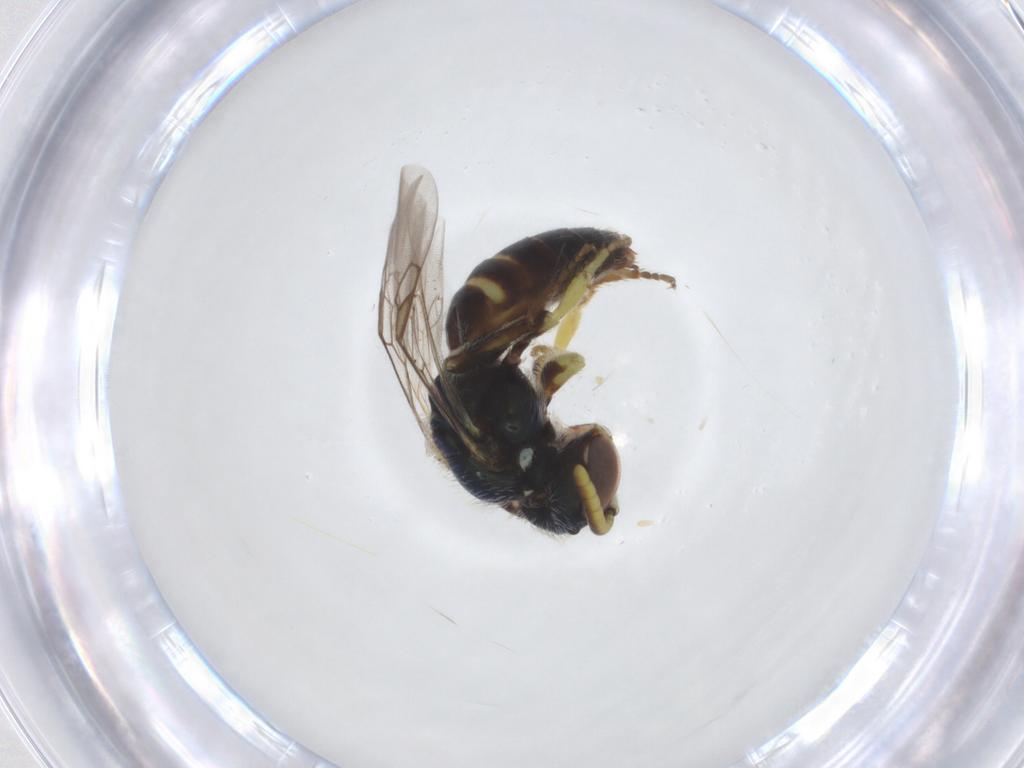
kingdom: Animalia
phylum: Arthropoda
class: Insecta
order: Hymenoptera
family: Andrenidae
